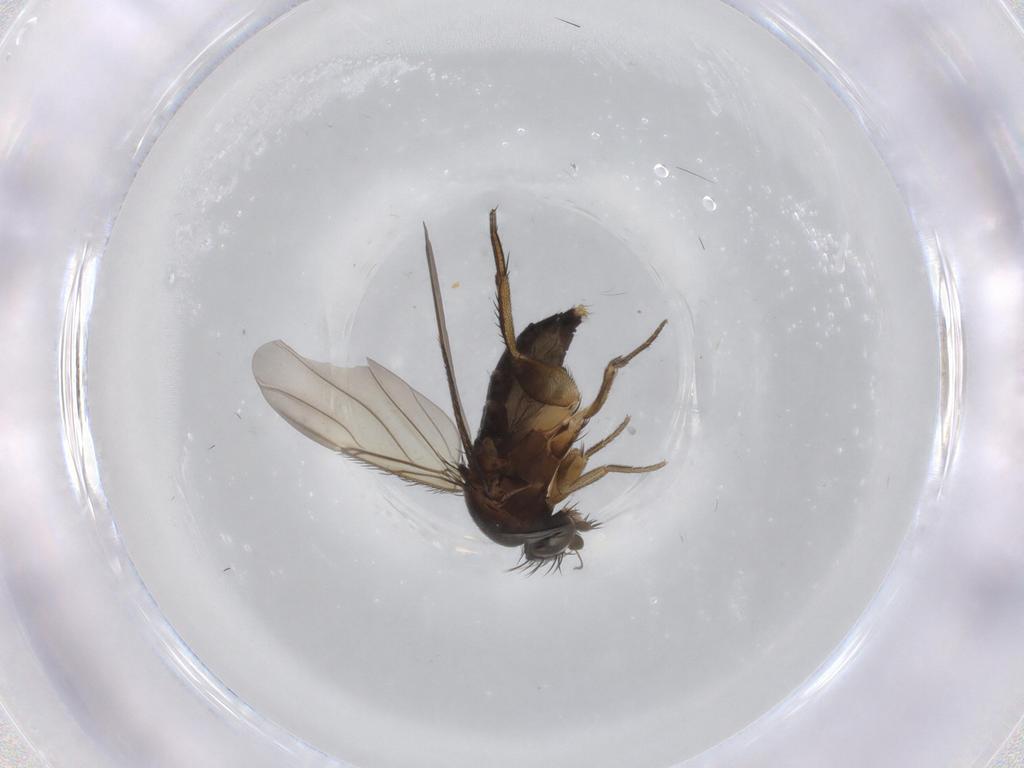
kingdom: Animalia
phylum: Arthropoda
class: Insecta
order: Diptera
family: Phoridae
